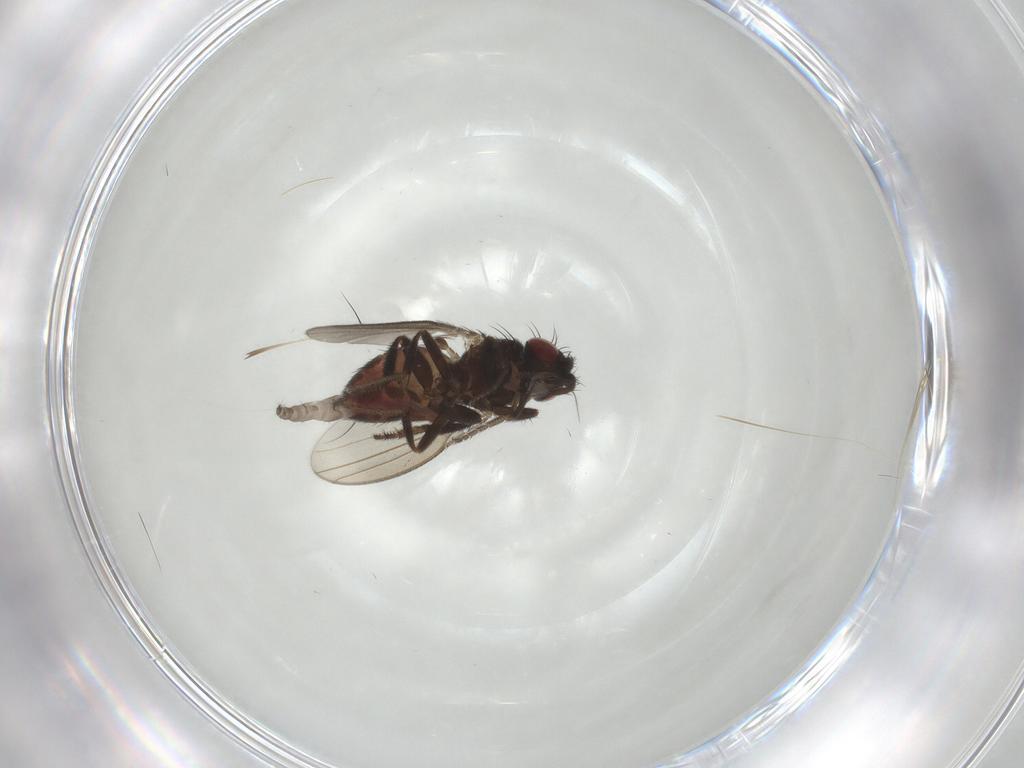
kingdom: Animalia
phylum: Arthropoda
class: Insecta
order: Diptera
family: Milichiidae
